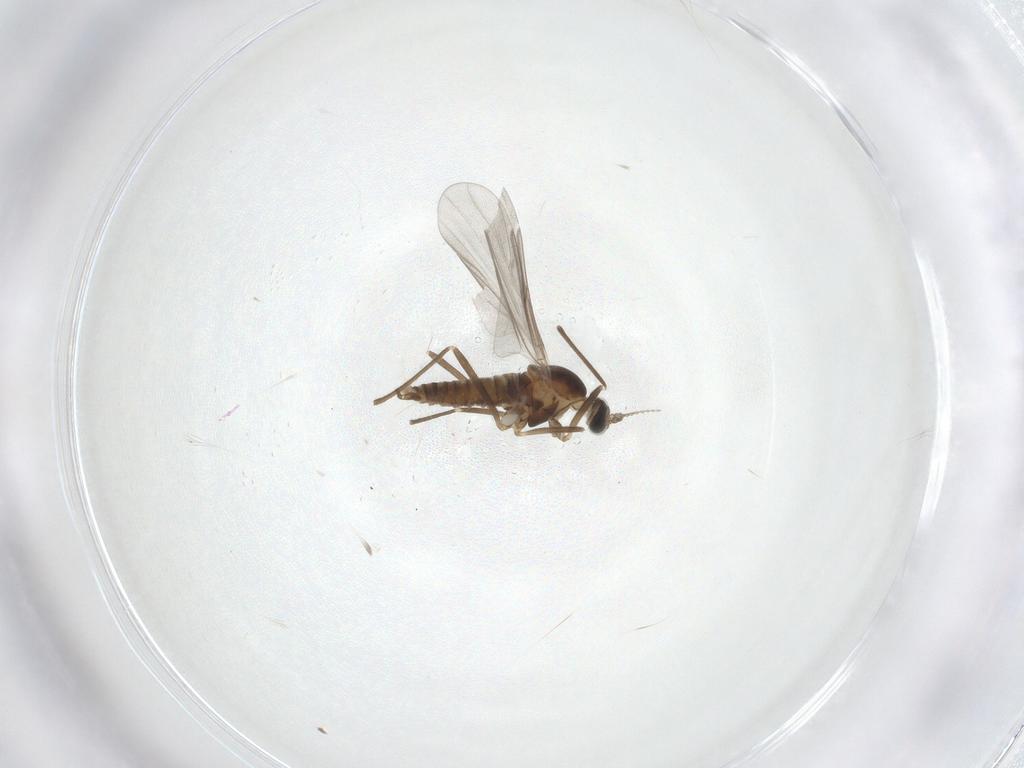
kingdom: Animalia
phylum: Arthropoda
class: Insecta
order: Diptera
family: Cecidomyiidae
